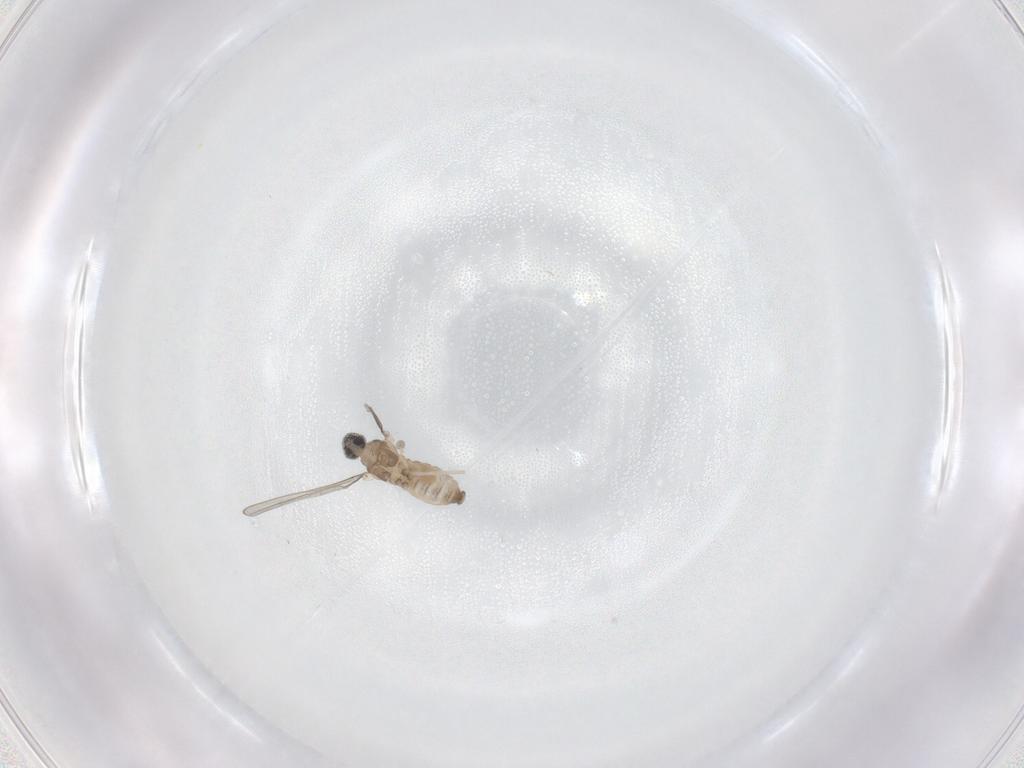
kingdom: Animalia
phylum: Arthropoda
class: Insecta
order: Diptera
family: Cecidomyiidae
